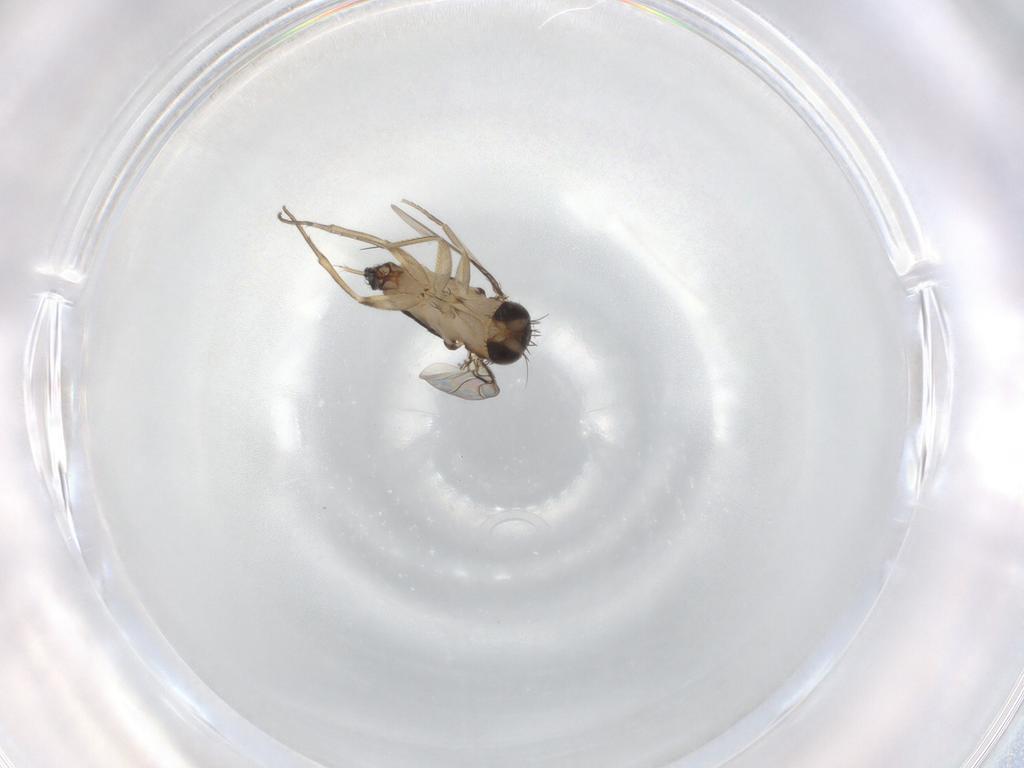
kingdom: Animalia
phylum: Arthropoda
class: Insecta
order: Diptera
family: Phoridae
